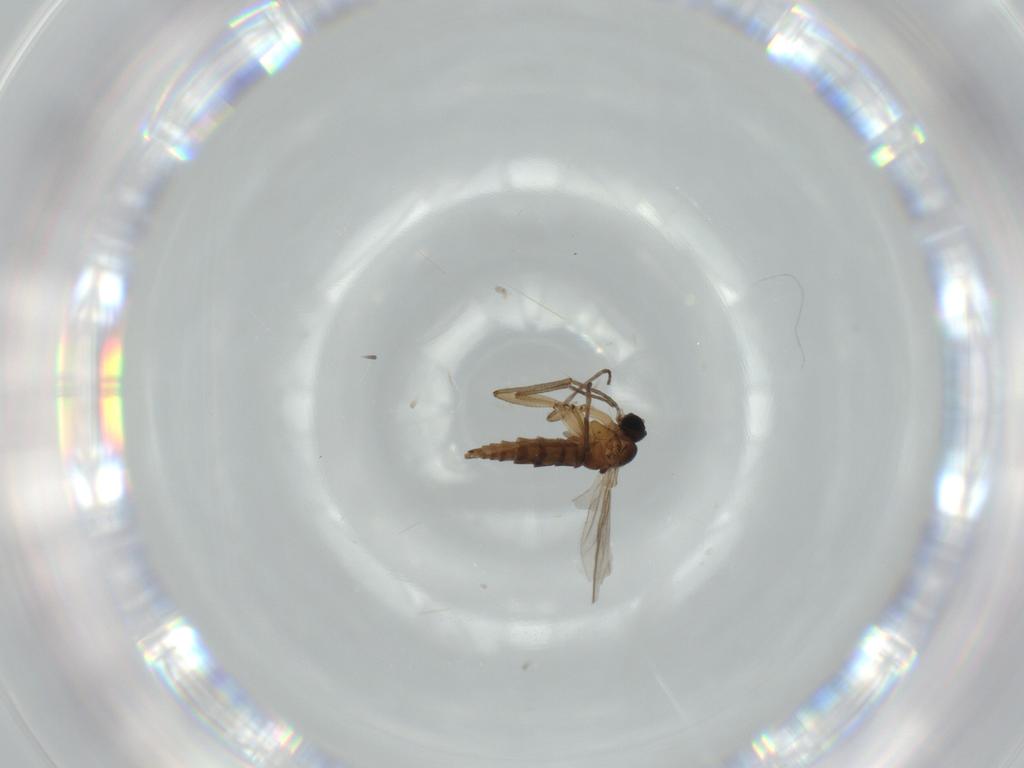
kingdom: Animalia
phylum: Arthropoda
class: Insecta
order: Diptera
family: Sciaridae
